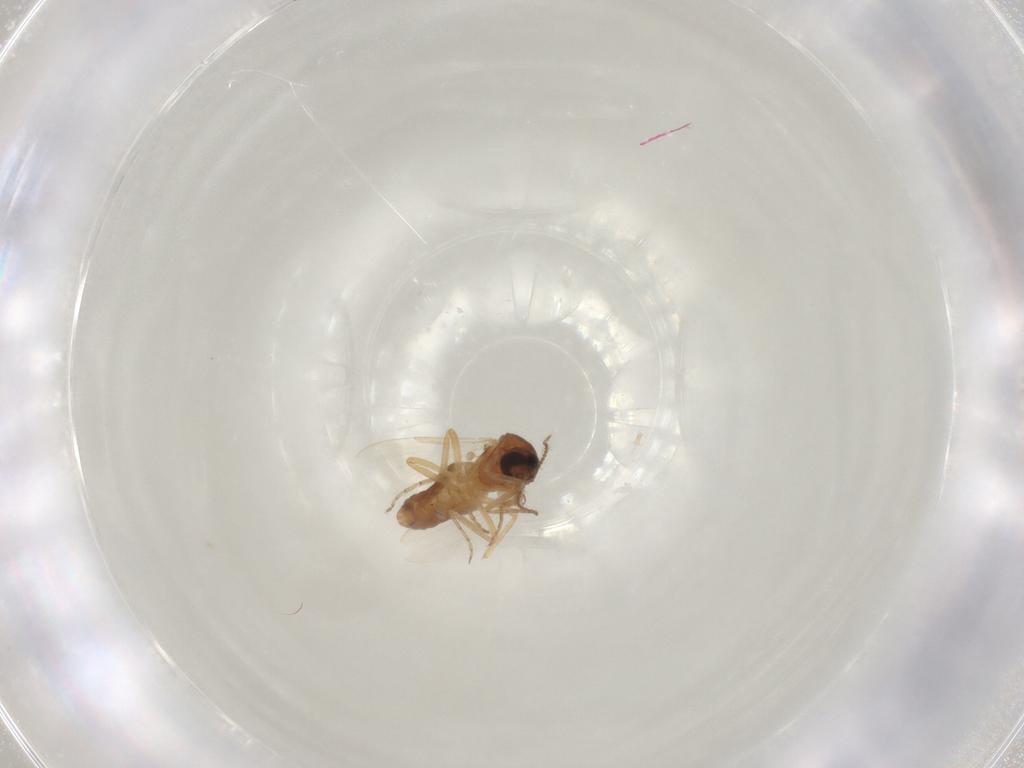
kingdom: Animalia
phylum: Arthropoda
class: Insecta
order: Diptera
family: Ceratopogonidae
